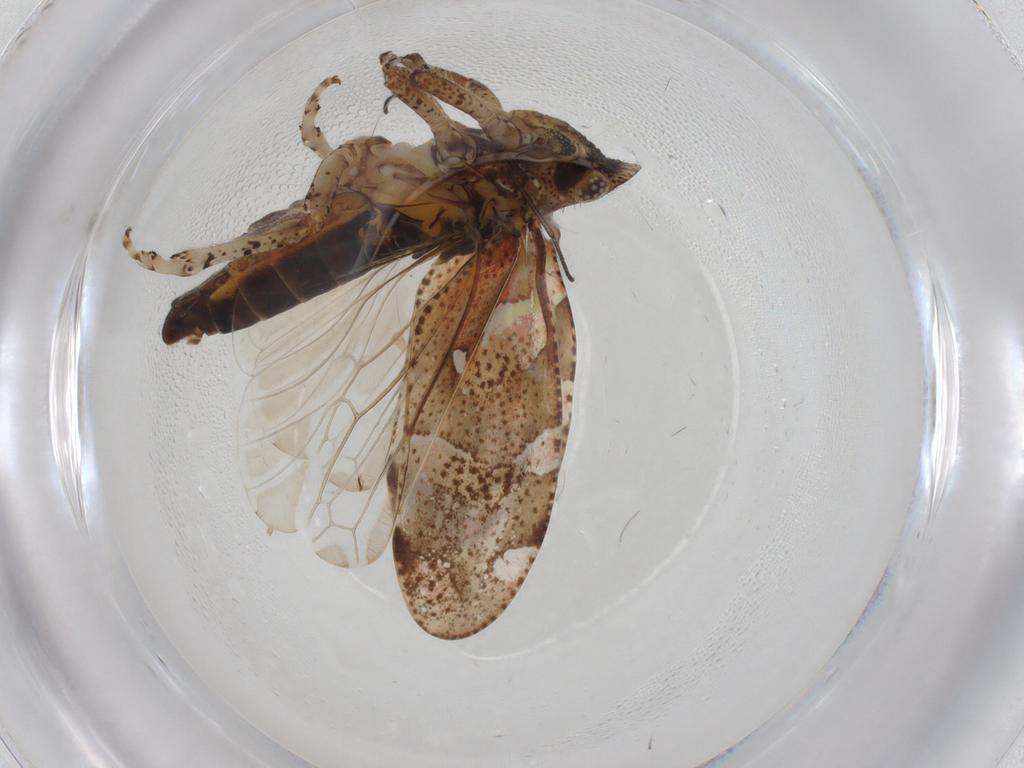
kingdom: Animalia
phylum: Arthropoda
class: Insecta
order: Hemiptera
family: Tettigometridae
